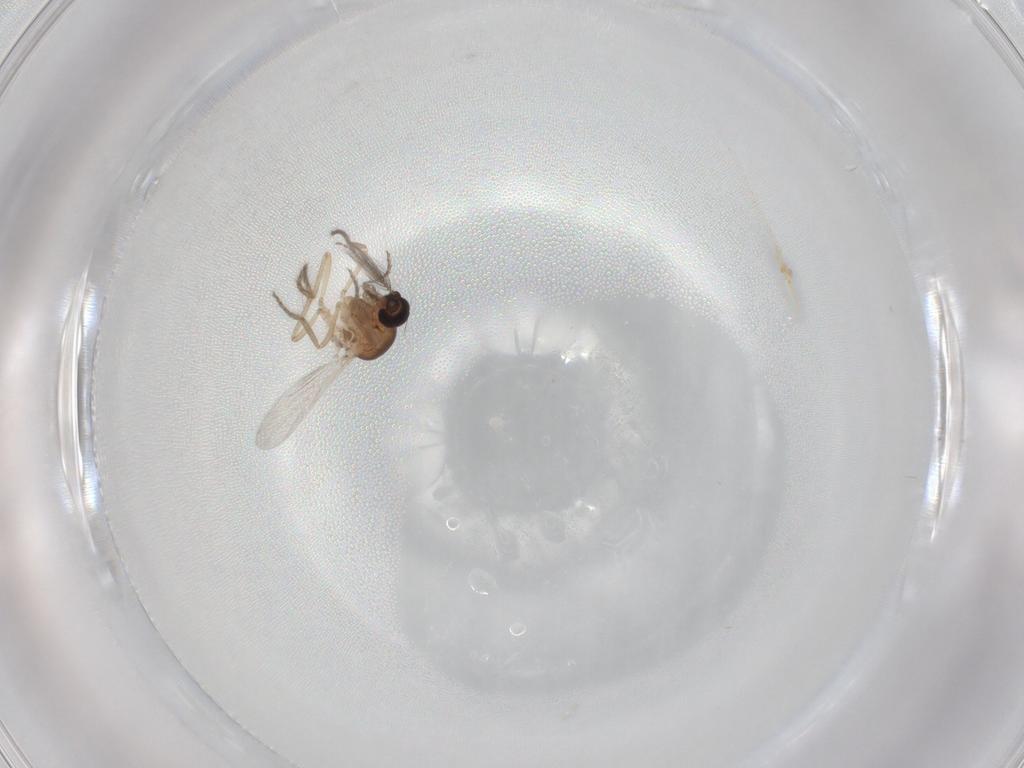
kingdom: Animalia
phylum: Arthropoda
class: Insecta
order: Diptera
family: Ceratopogonidae
